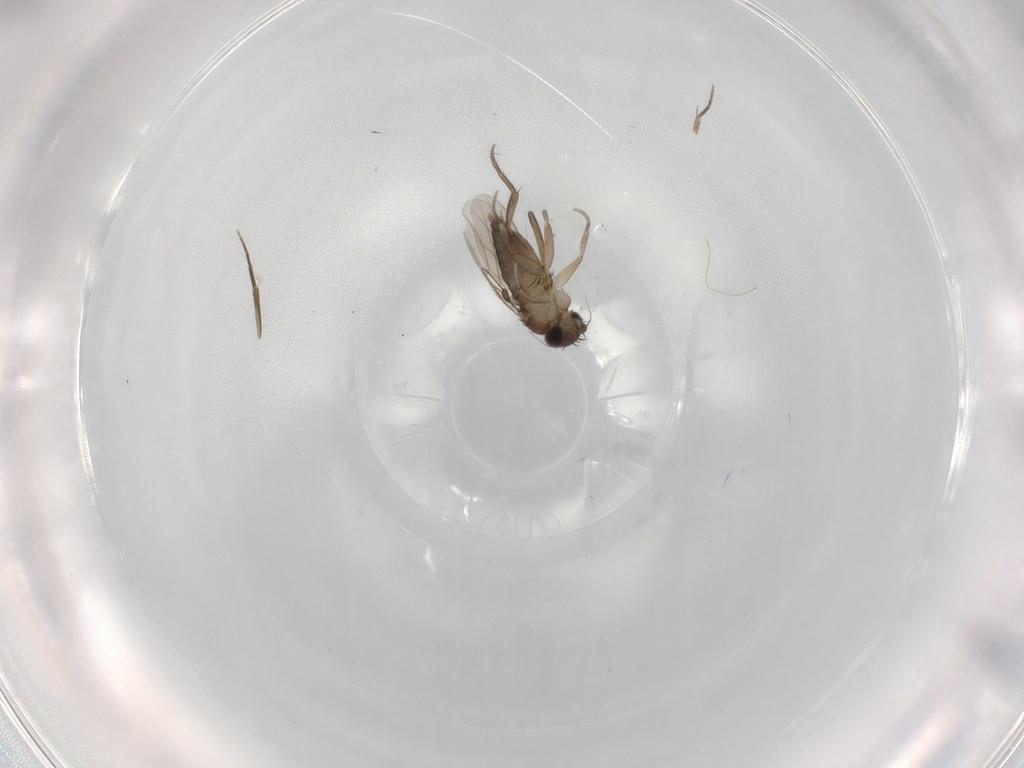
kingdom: Animalia
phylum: Arthropoda
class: Insecta
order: Diptera
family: Phoridae
